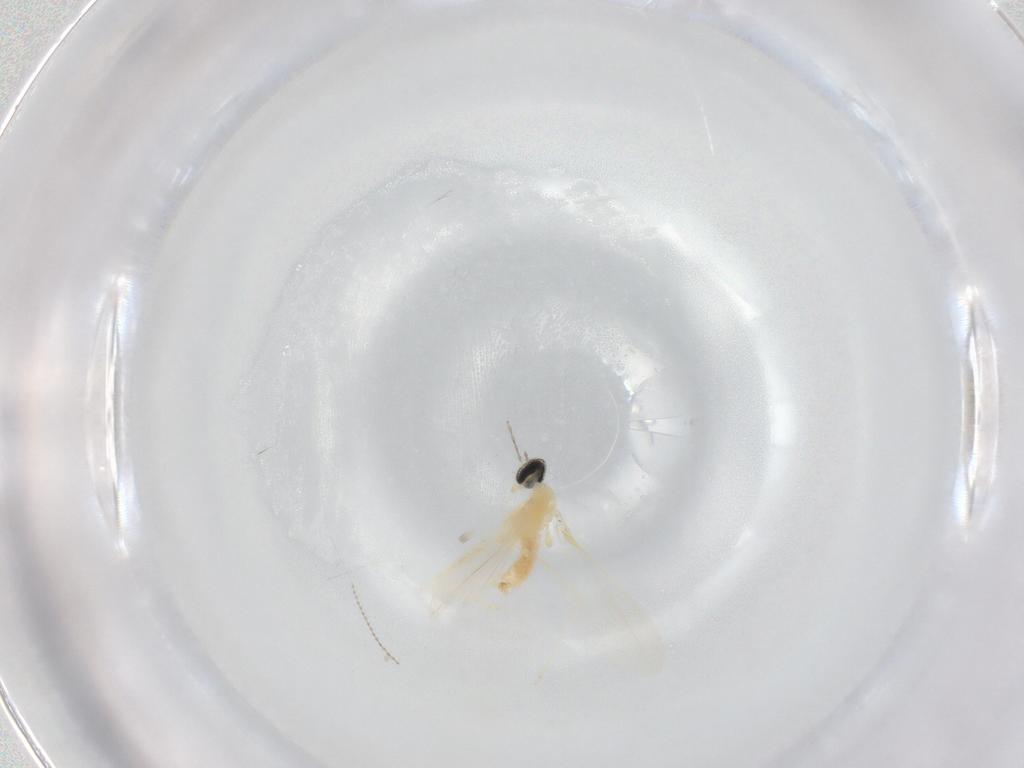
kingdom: Animalia
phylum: Arthropoda
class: Insecta
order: Diptera
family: Cecidomyiidae
